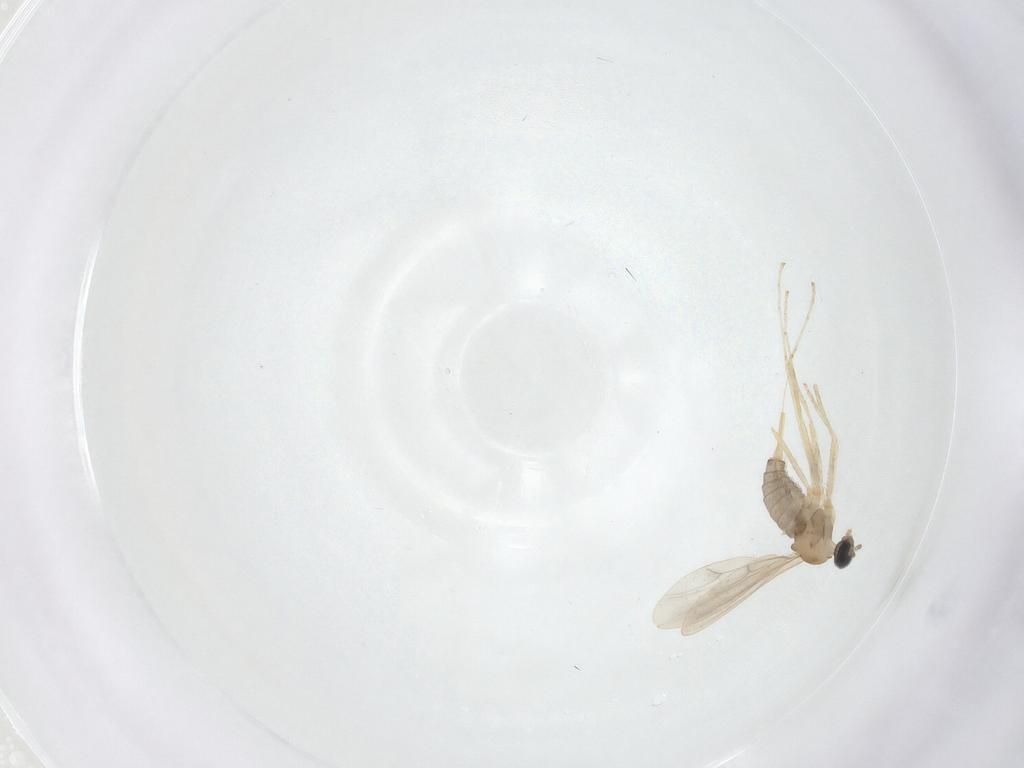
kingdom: Animalia
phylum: Arthropoda
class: Insecta
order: Diptera
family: Cecidomyiidae
